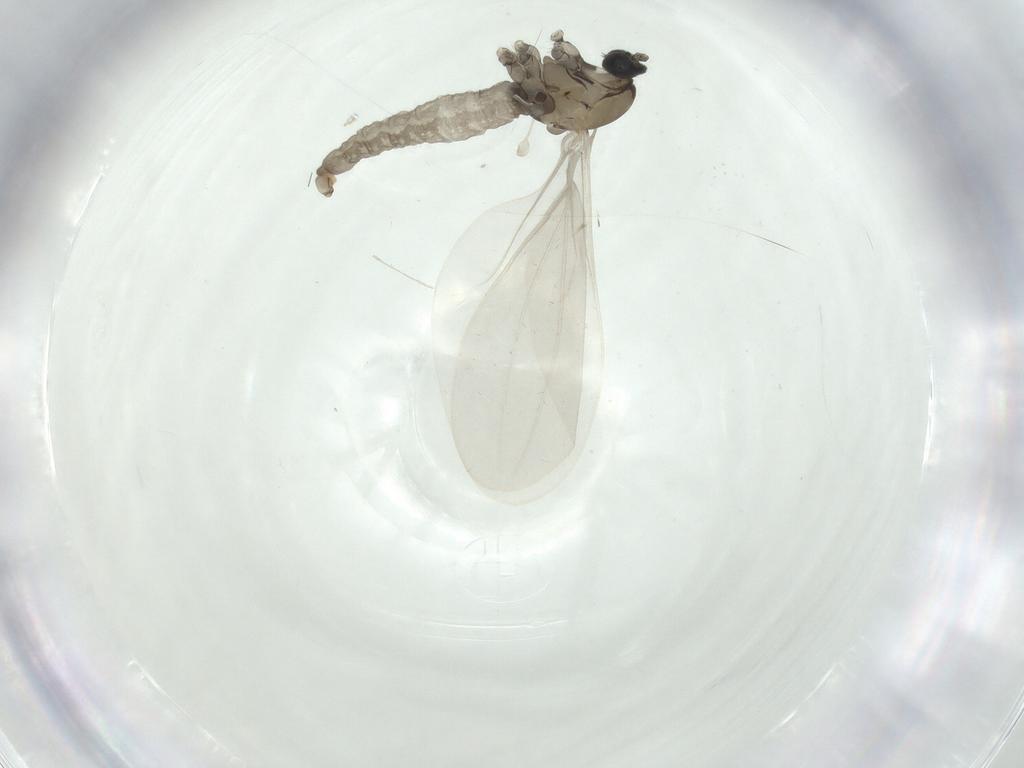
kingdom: Animalia
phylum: Arthropoda
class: Insecta
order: Diptera
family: Cecidomyiidae
